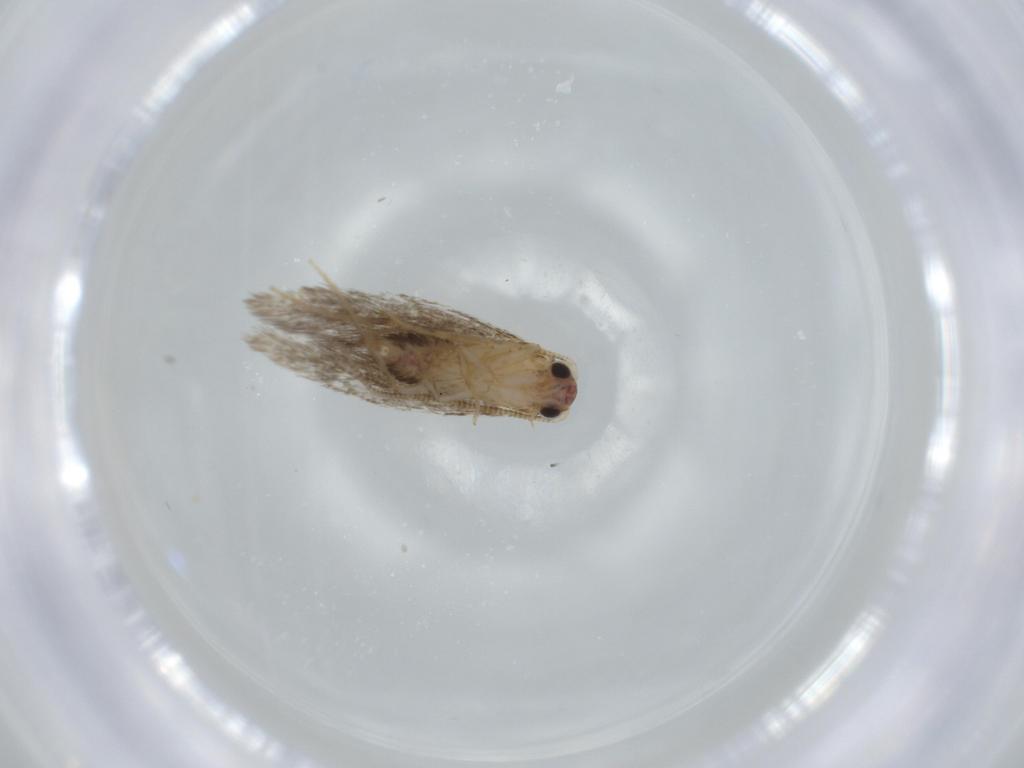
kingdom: Animalia
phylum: Arthropoda
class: Insecta
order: Lepidoptera
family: Tineidae
